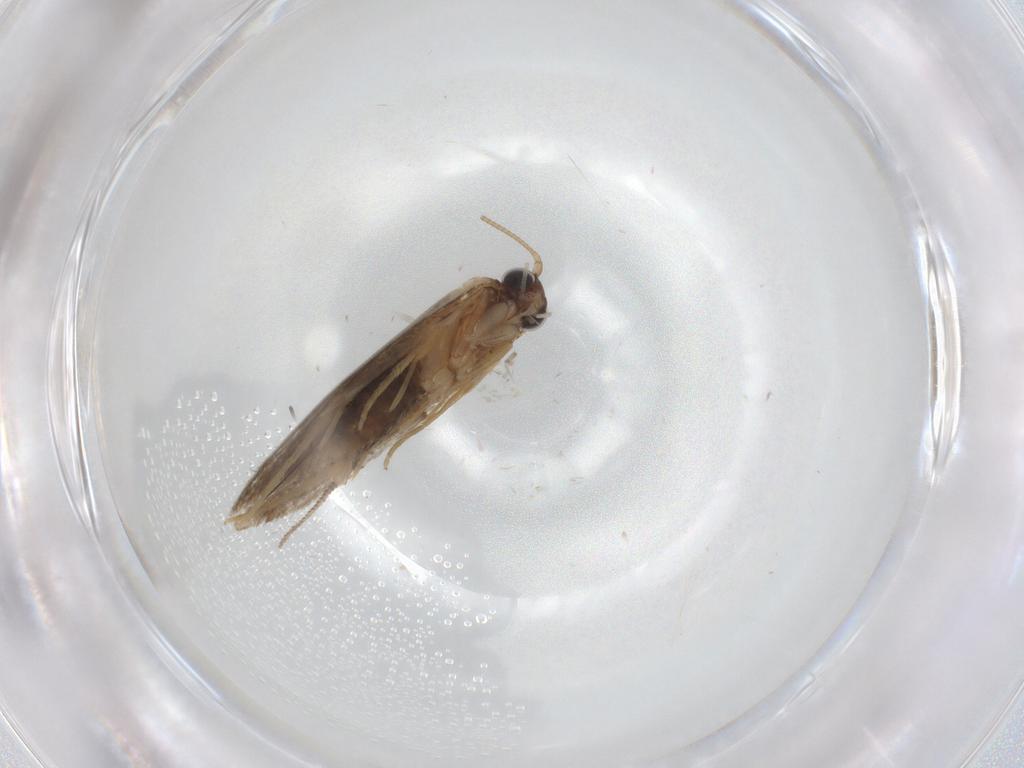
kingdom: Animalia
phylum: Arthropoda
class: Insecta
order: Lepidoptera
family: Tineidae
